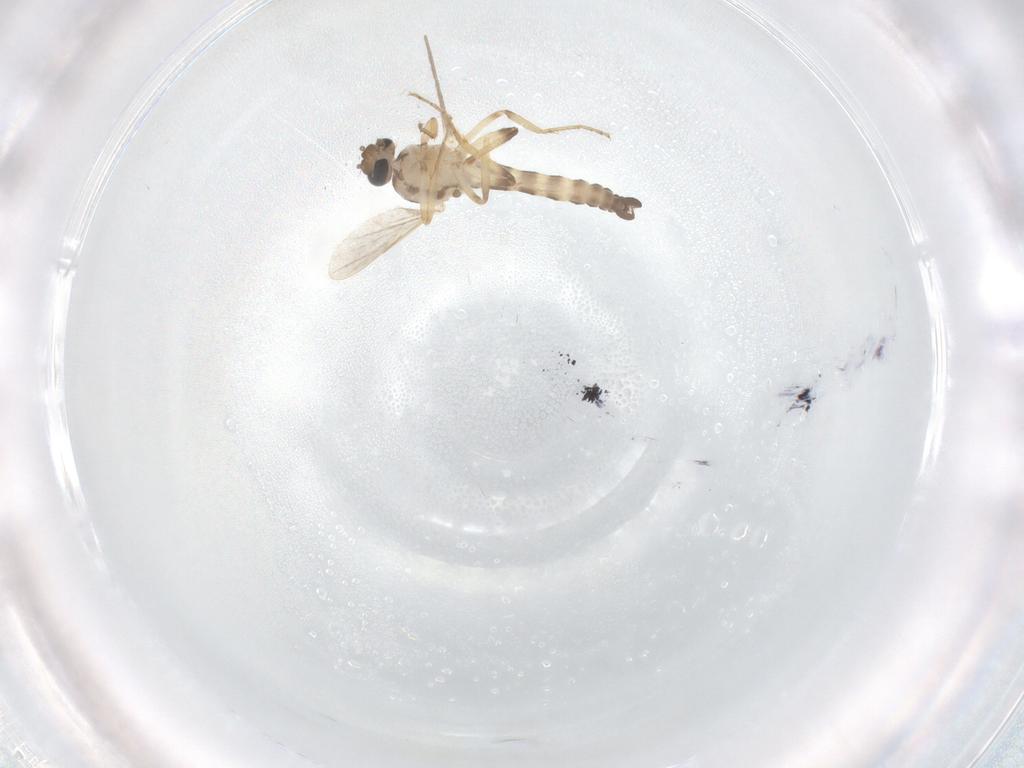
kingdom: Animalia
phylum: Arthropoda
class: Insecta
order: Diptera
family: Ceratopogonidae
